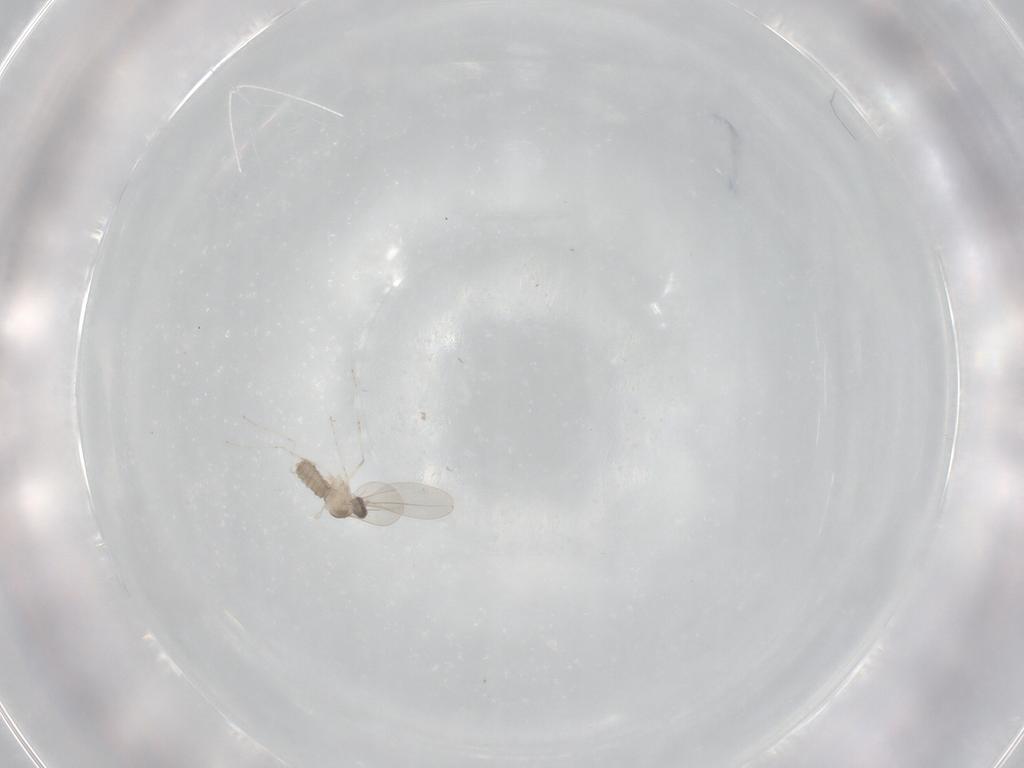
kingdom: Animalia
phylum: Arthropoda
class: Insecta
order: Diptera
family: Cecidomyiidae
